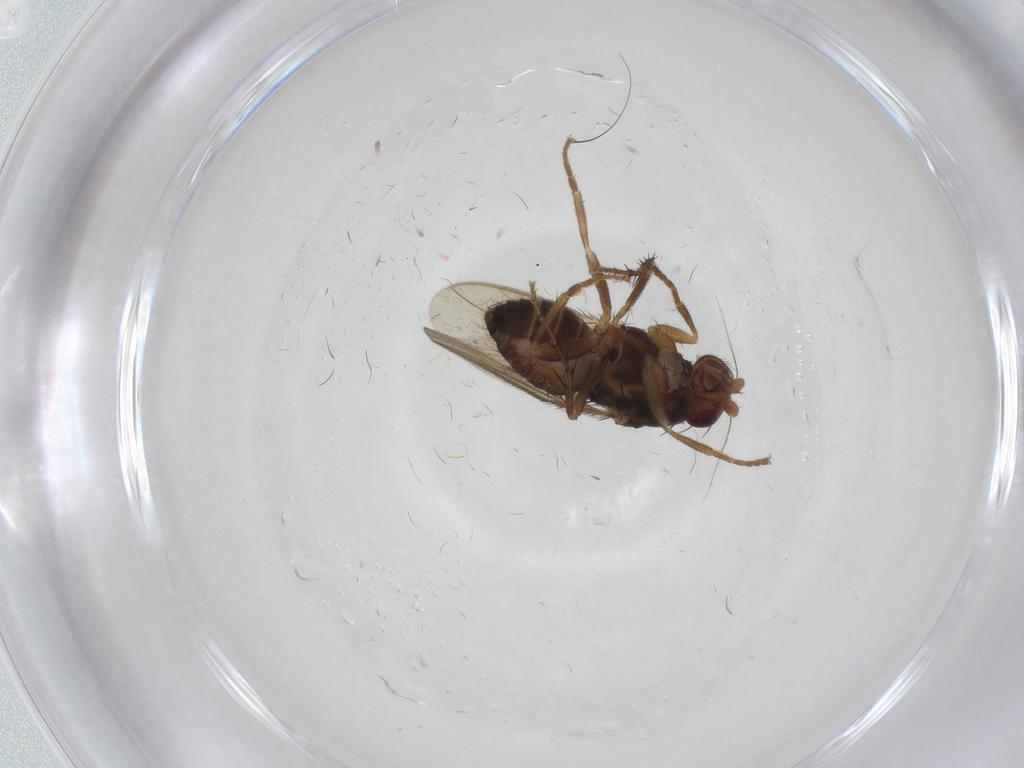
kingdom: Animalia
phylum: Arthropoda
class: Insecta
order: Diptera
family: Sphaeroceridae
